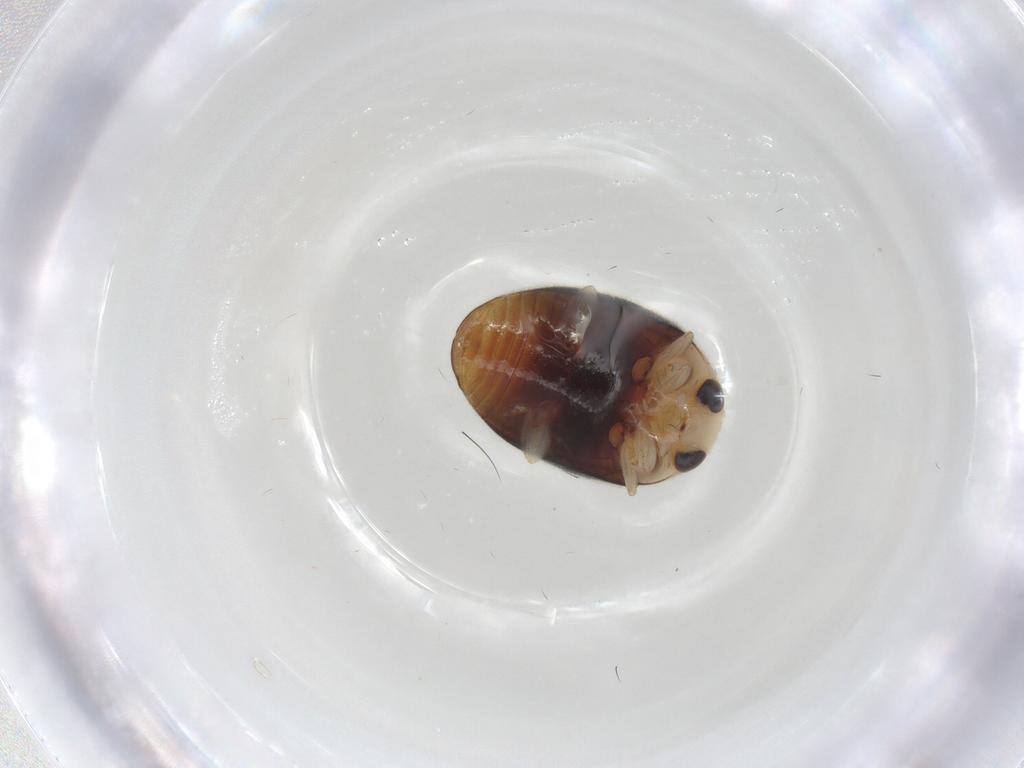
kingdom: Animalia
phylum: Arthropoda
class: Insecta
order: Coleoptera
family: Coccinellidae
